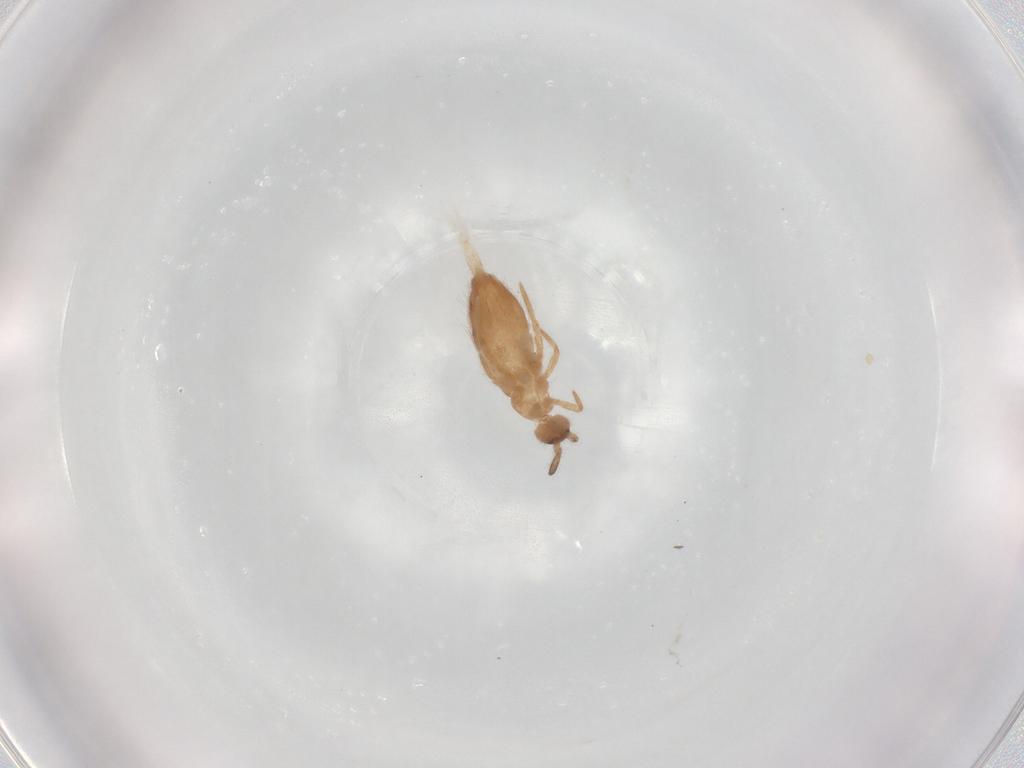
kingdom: Animalia
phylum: Arthropoda
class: Collembola
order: Entomobryomorpha
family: Entomobryidae
